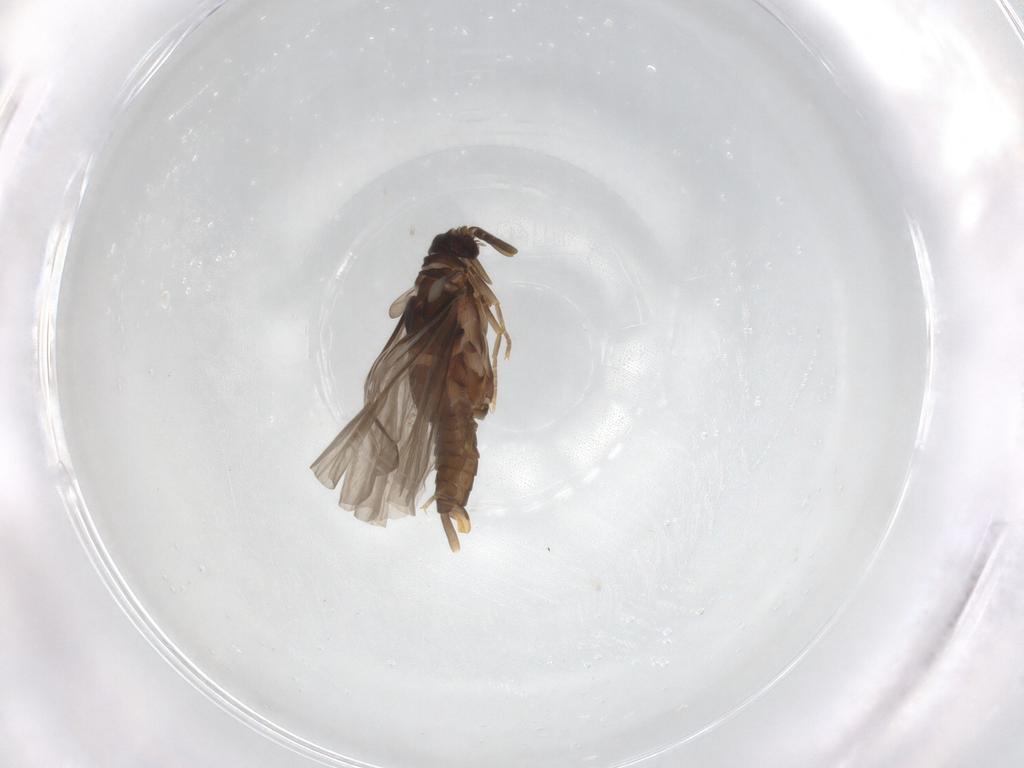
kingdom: Animalia
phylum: Arthropoda
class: Insecta
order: Strepsiptera
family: Mengenillidae
